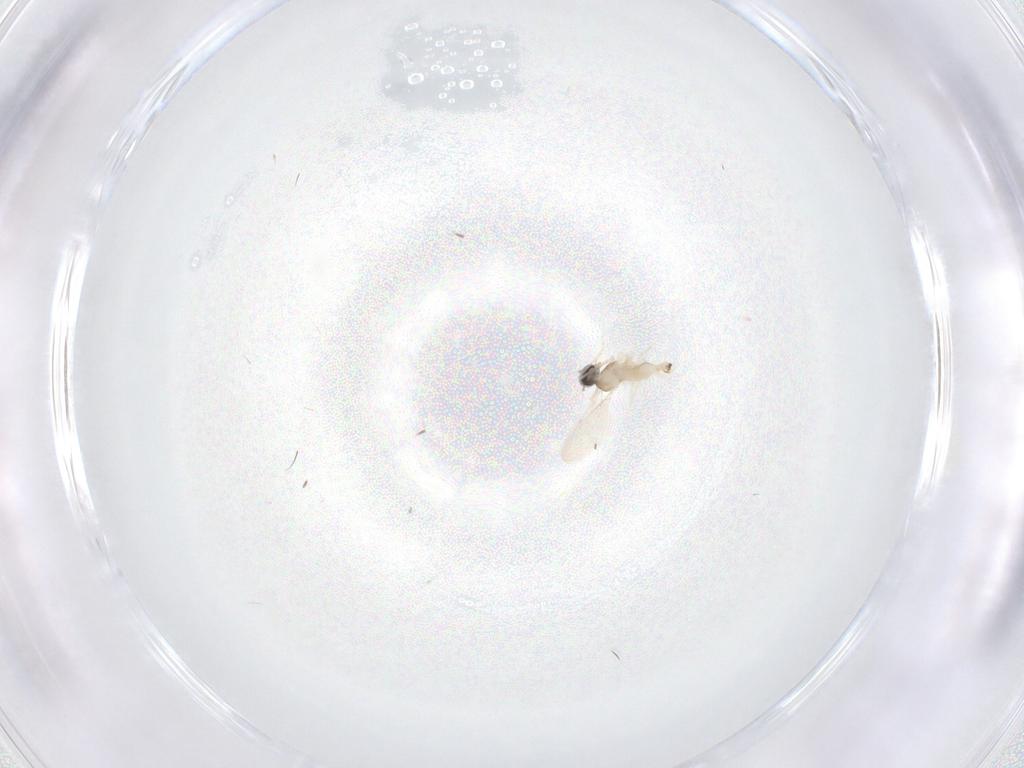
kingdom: Animalia
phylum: Arthropoda
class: Insecta
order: Diptera
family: Cecidomyiidae
